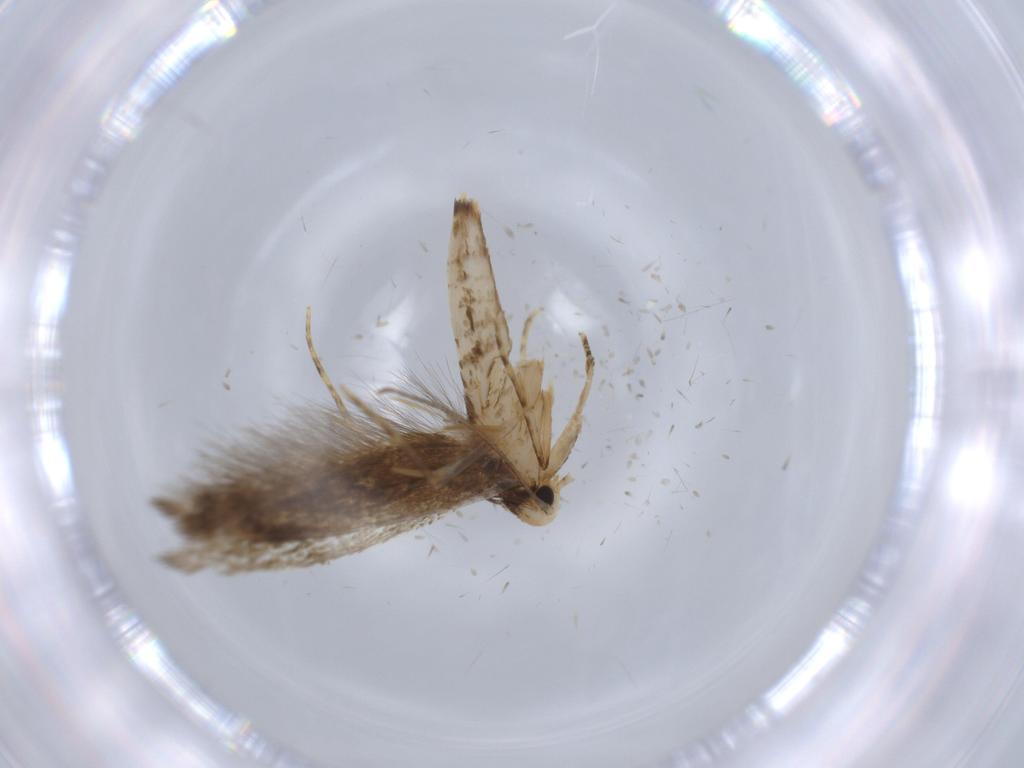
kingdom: Animalia
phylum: Arthropoda
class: Insecta
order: Lepidoptera
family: Tineidae
